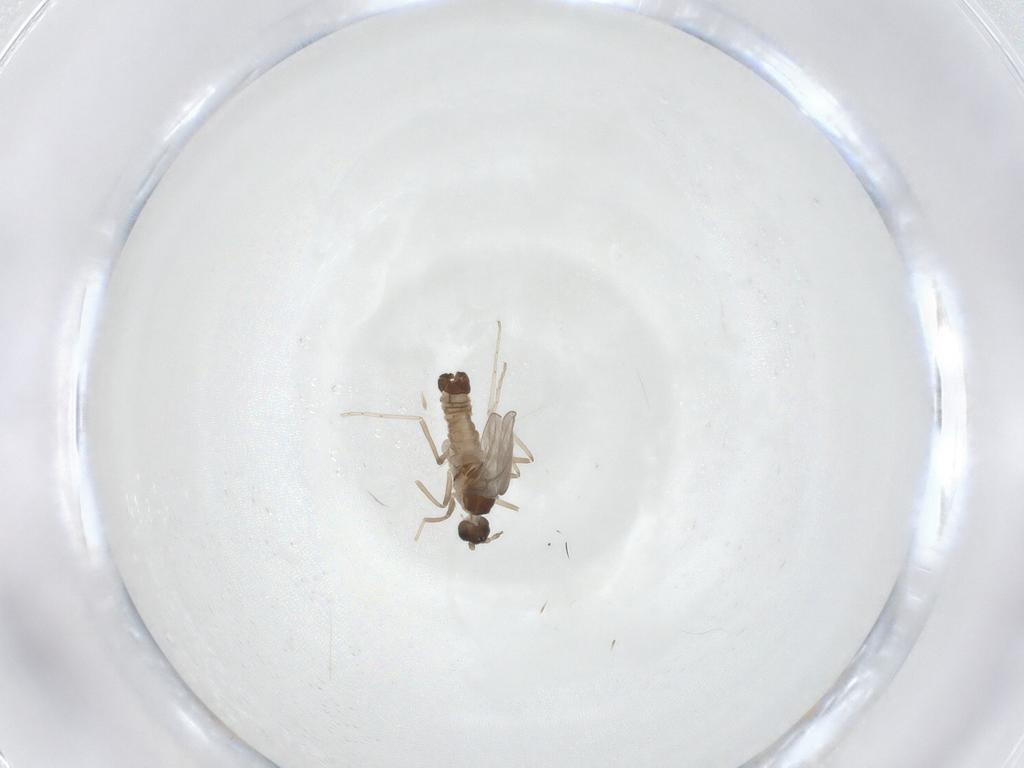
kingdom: Animalia
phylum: Arthropoda
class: Insecta
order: Diptera
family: Cecidomyiidae
